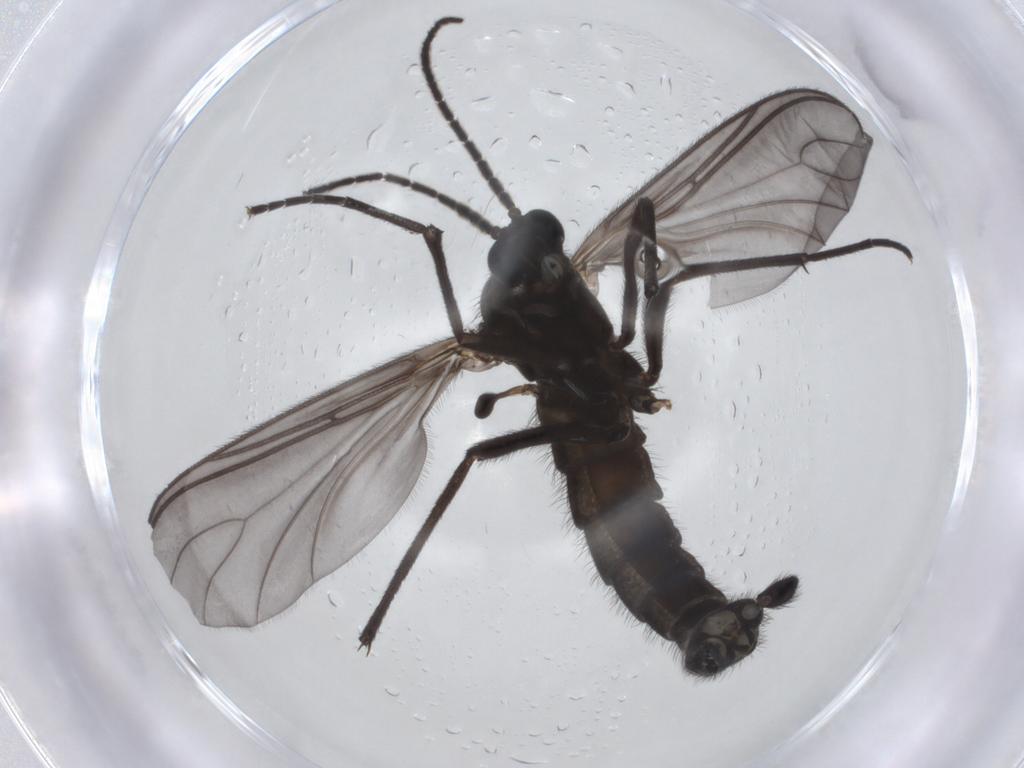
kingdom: Animalia
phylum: Arthropoda
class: Insecta
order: Diptera
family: Cecidomyiidae
